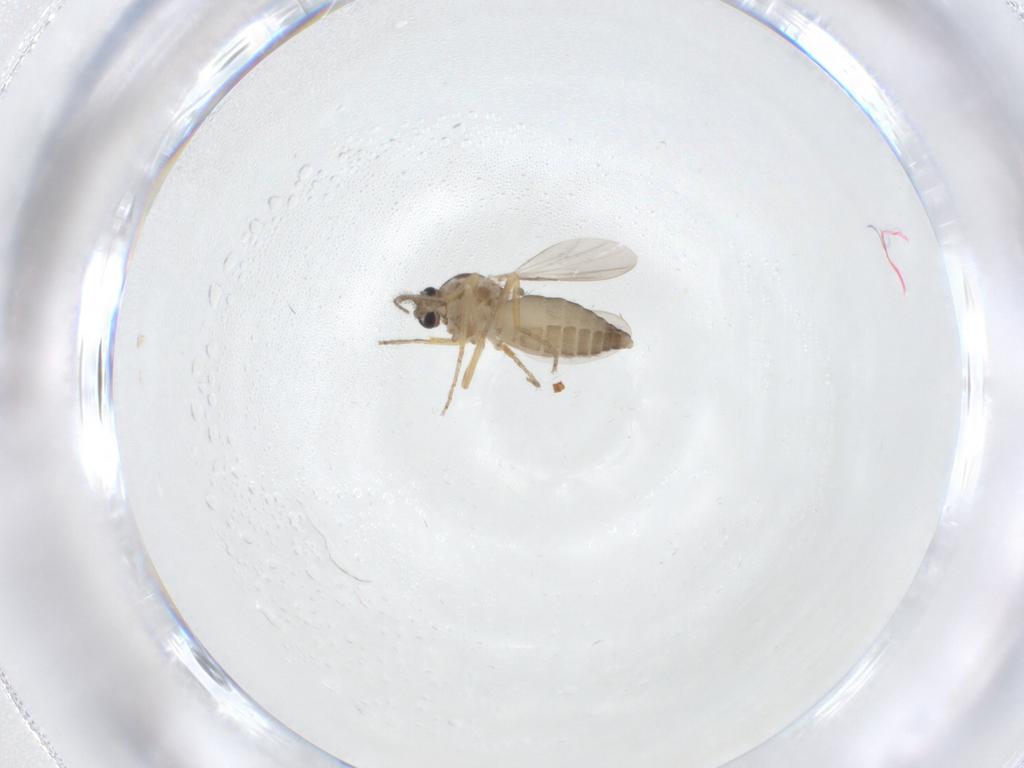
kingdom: Animalia
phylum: Arthropoda
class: Insecta
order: Diptera
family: Ceratopogonidae
